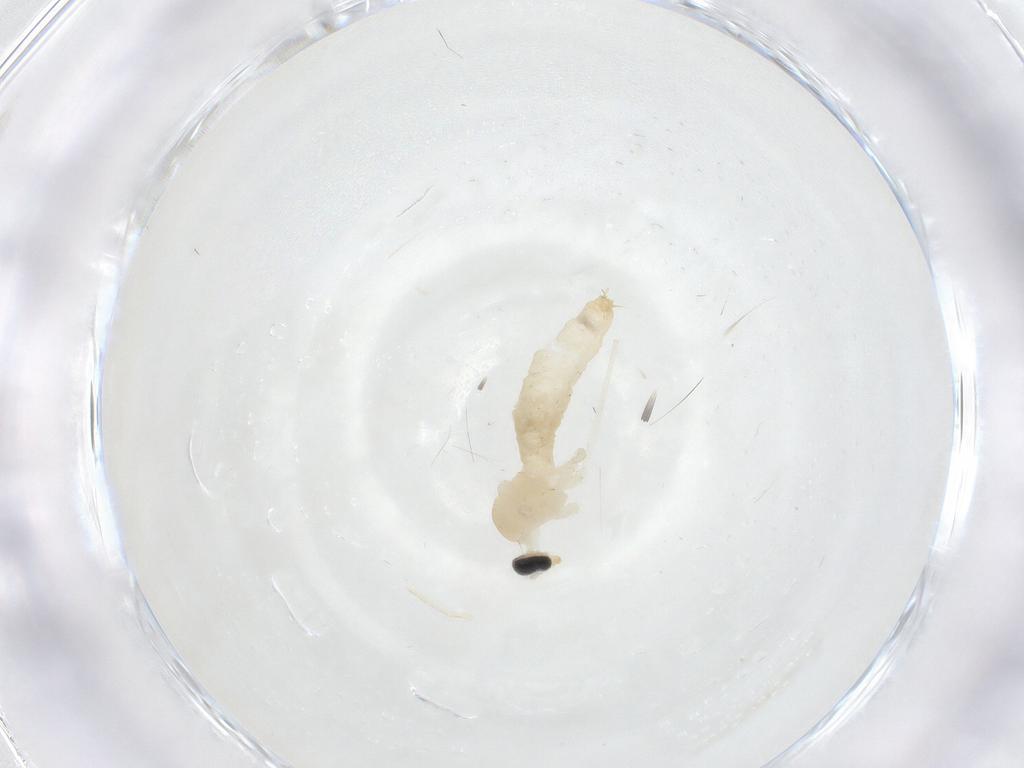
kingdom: Animalia
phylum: Arthropoda
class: Insecta
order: Diptera
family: Cecidomyiidae
